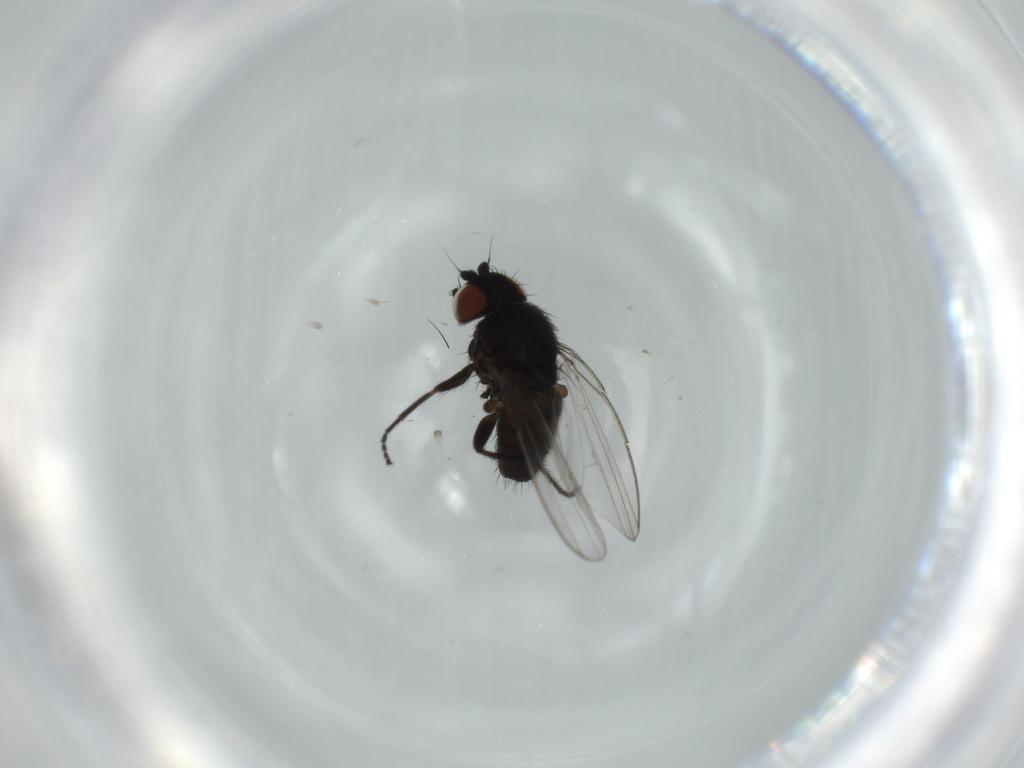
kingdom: Animalia
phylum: Arthropoda
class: Insecta
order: Diptera
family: Milichiidae
